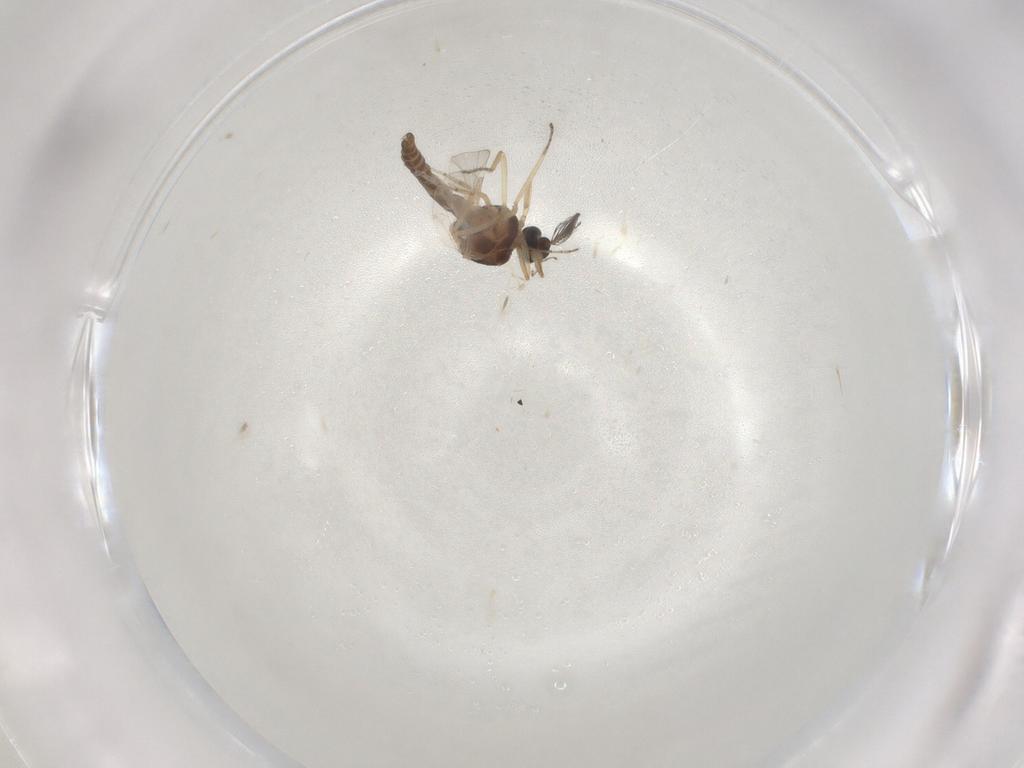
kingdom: Animalia
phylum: Arthropoda
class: Insecta
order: Diptera
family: Ceratopogonidae
